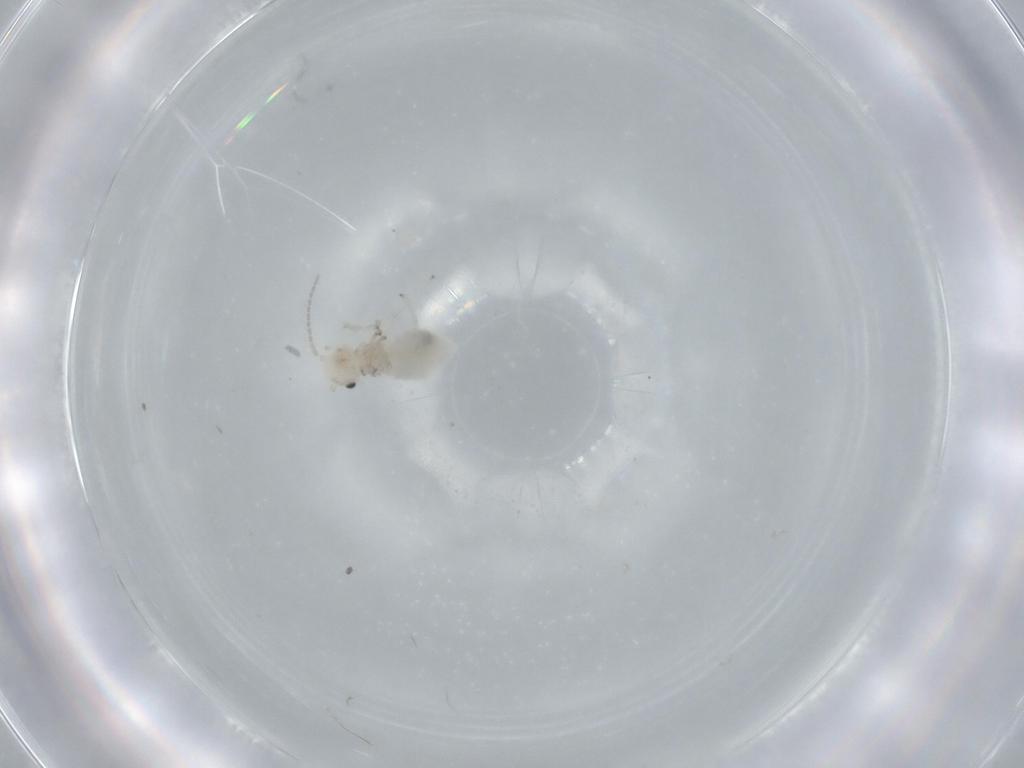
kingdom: Animalia
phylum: Arthropoda
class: Insecta
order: Psocodea
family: Amphipsocidae
